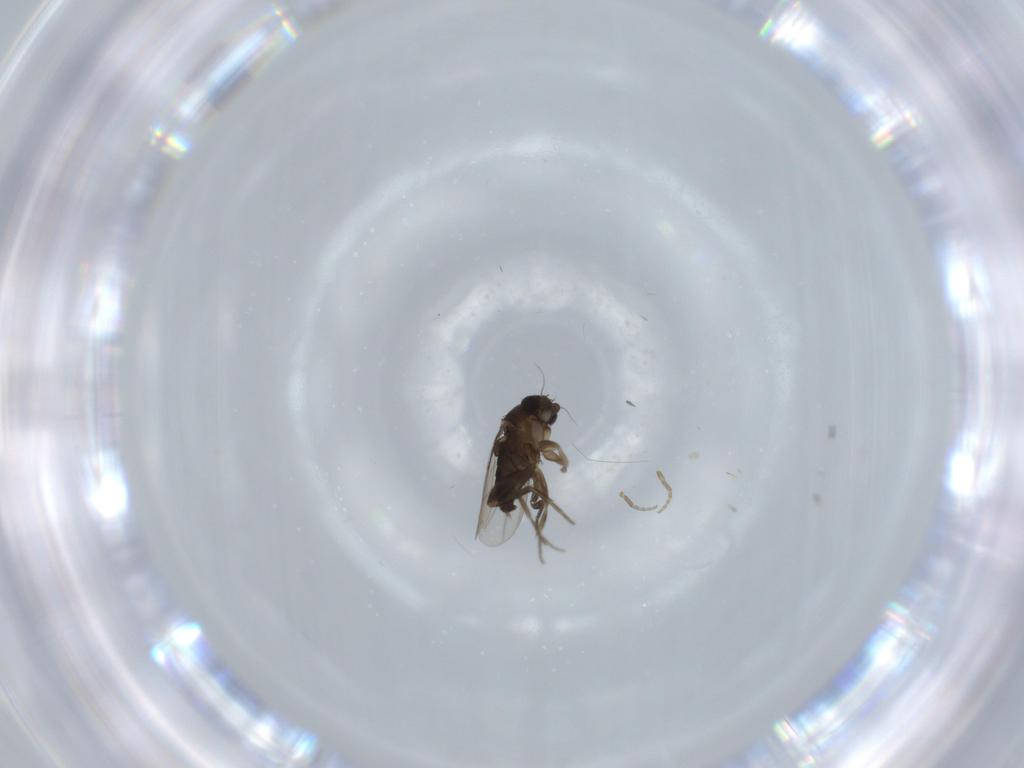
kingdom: Animalia
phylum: Arthropoda
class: Insecta
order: Diptera
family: Phoridae
